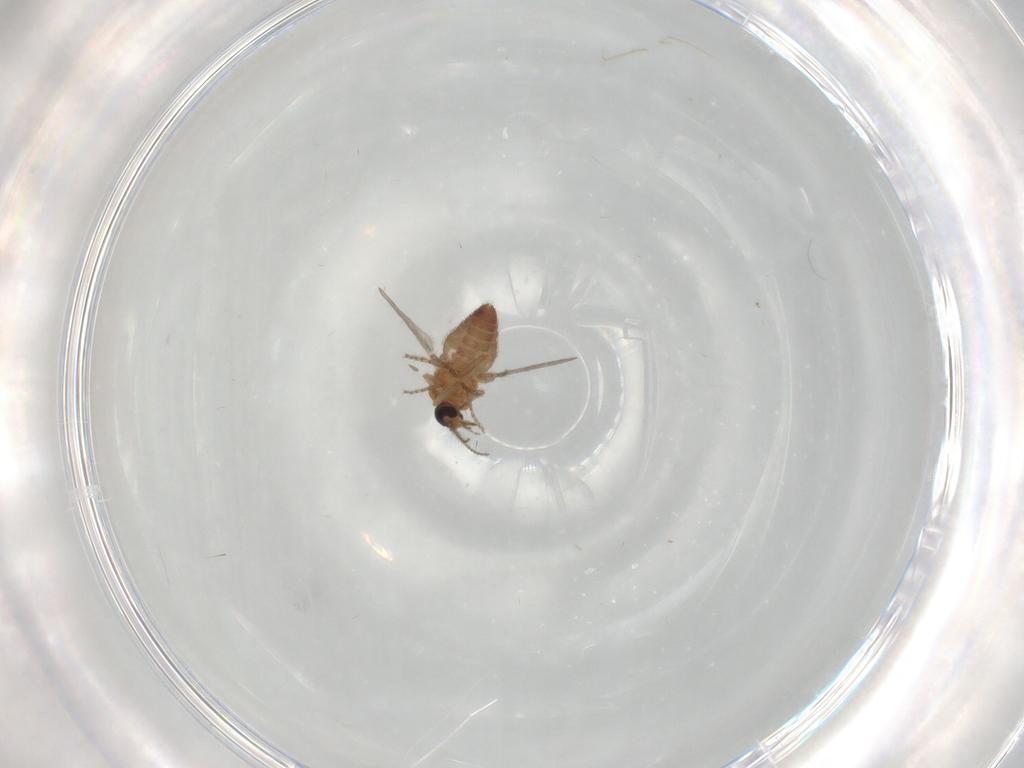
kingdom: Animalia
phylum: Arthropoda
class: Insecta
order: Diptera
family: Ceratopogonidae
